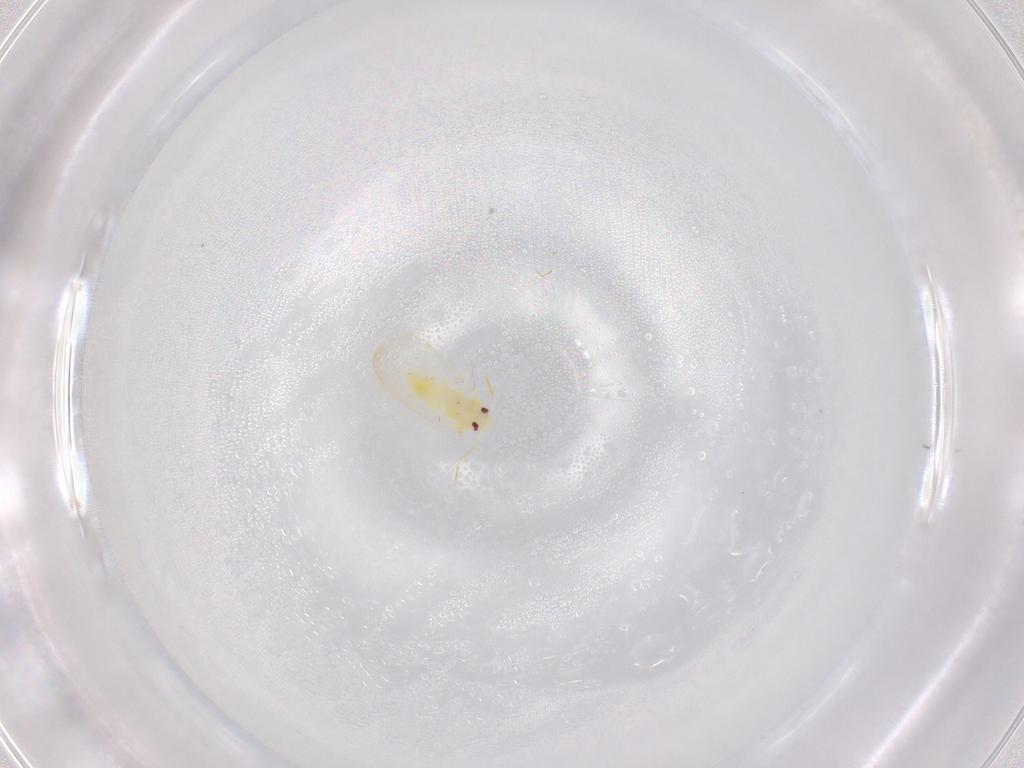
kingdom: Animalia
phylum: Arthropoda
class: Insecta
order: Hemiptera
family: Aleyrodidae
